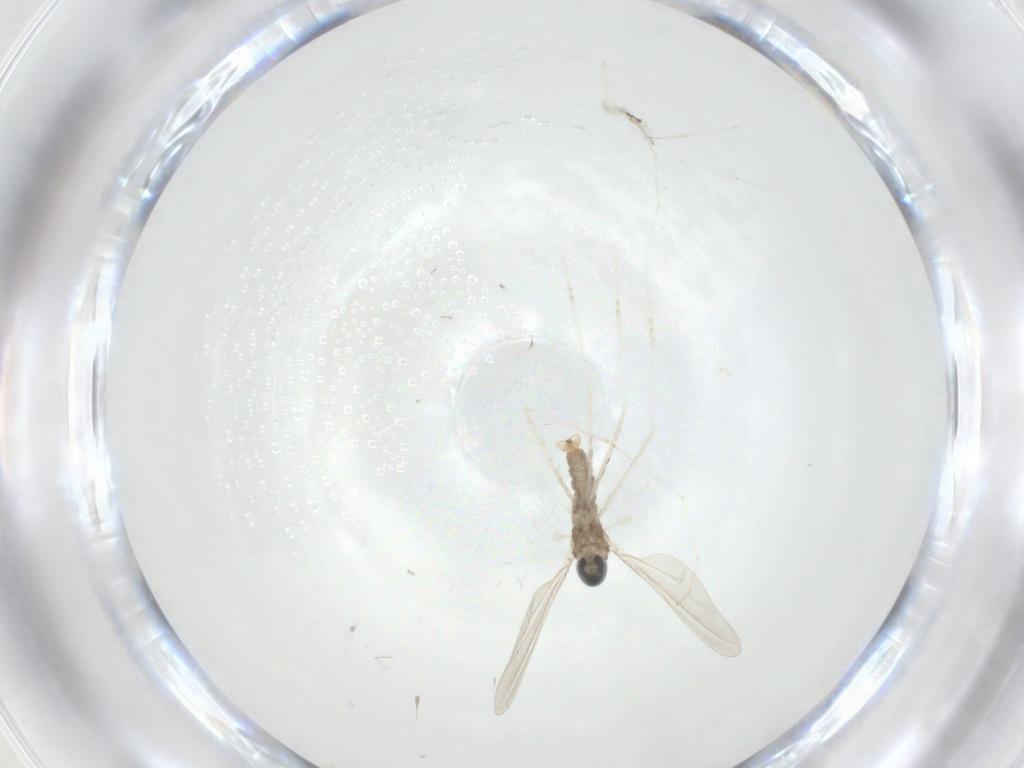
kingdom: Animalia
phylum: Arthropoda
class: Insecta
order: Diptera
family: Cecidomyiidae
